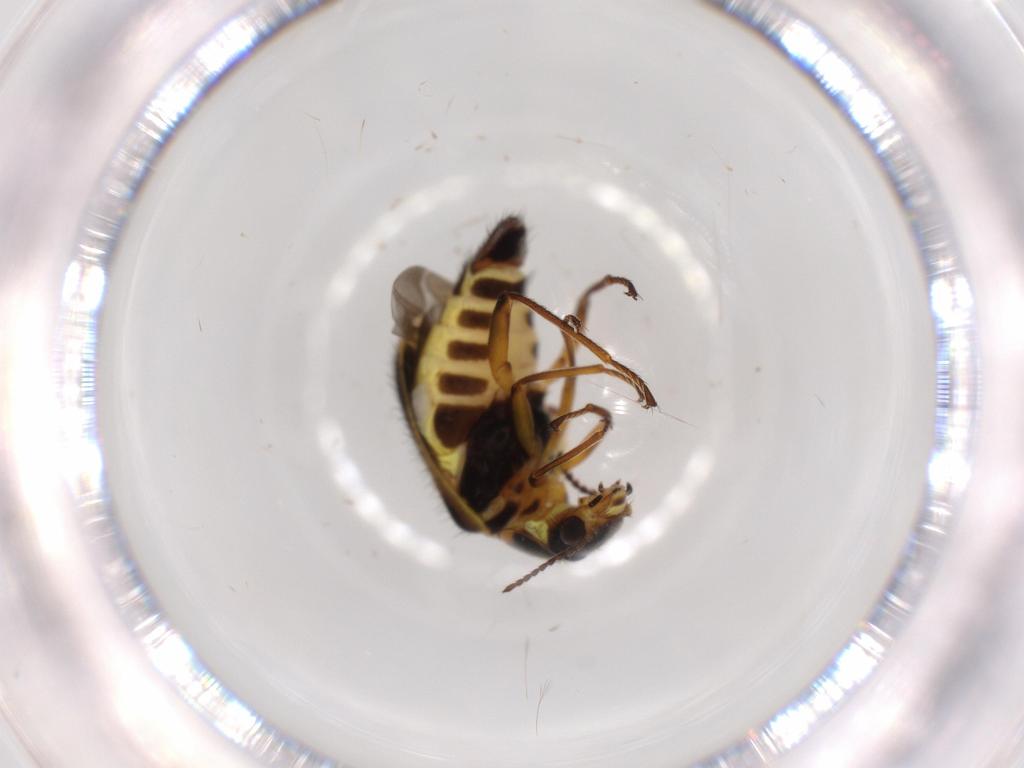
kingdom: Animalia
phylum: Arthropoda
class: Insecta
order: Coleoptera
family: Melyridae
